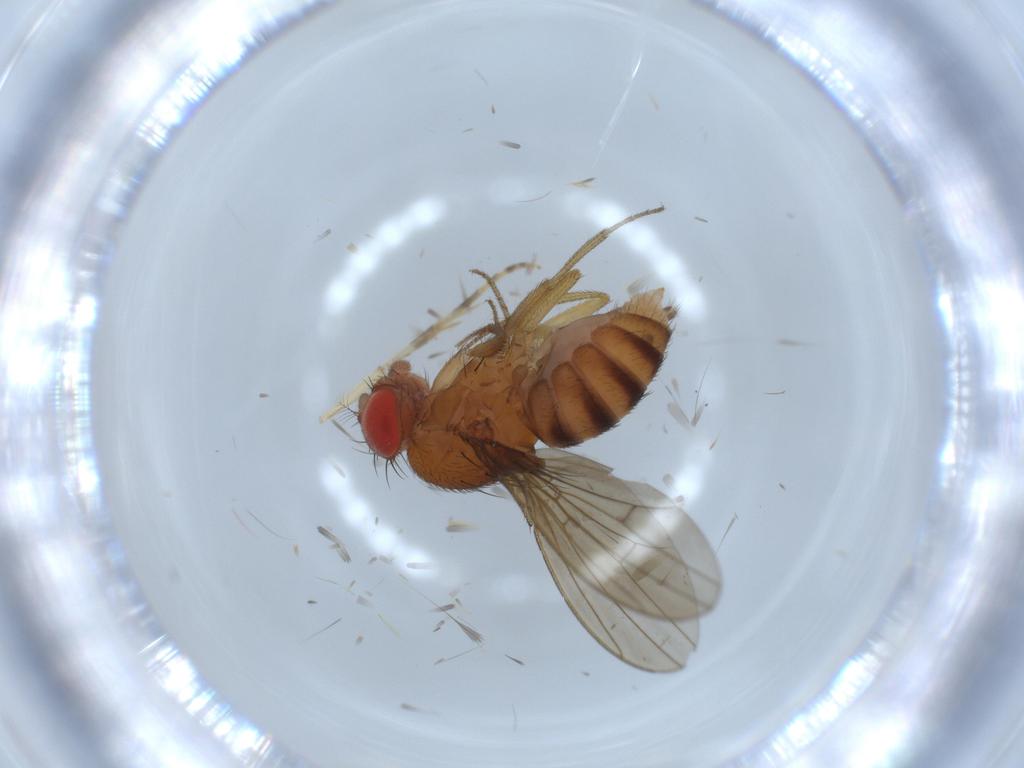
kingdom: Animalia
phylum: Arthropoda
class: Insecta
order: Diptera
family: Drosophilidae
